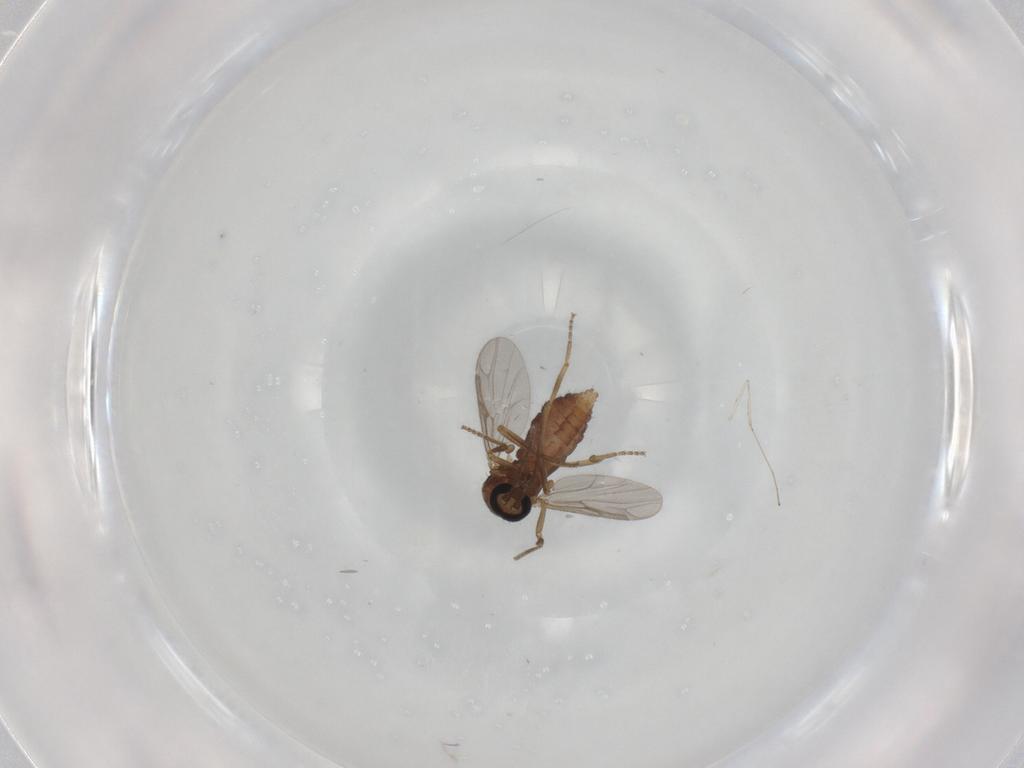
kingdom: Animalia
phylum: Arthropoda
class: Insecta
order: Diptera
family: Ceratopogonidae
